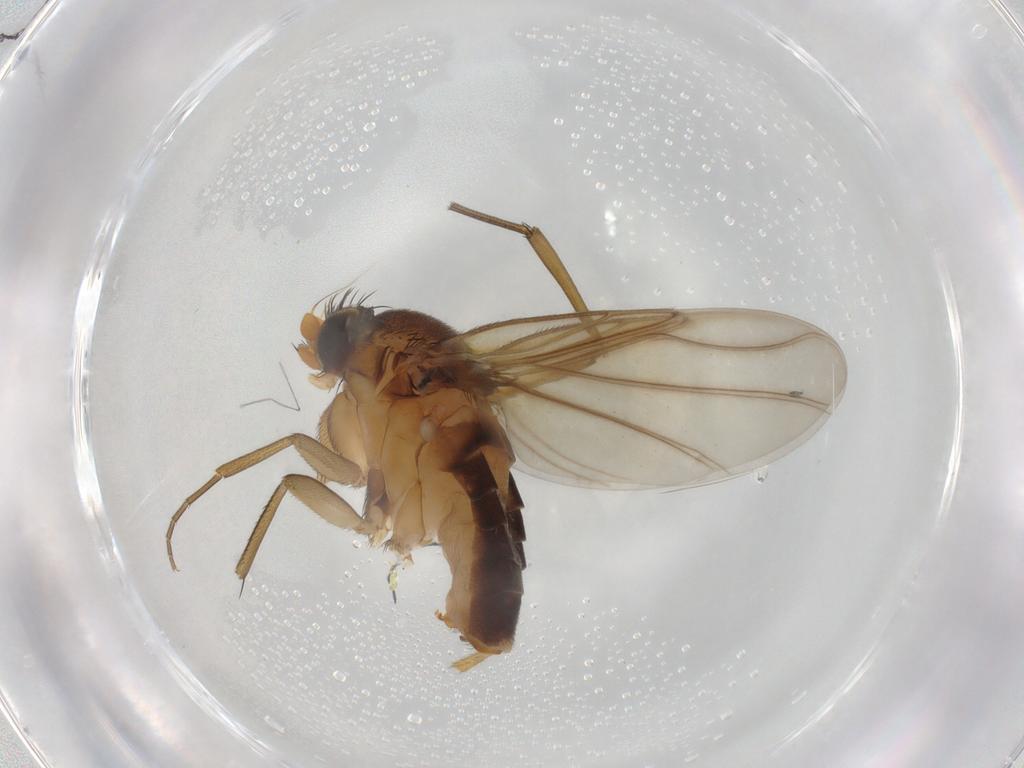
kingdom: Animalia
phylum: Arthropoda
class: Insecta
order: Diptera
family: Phoridae
